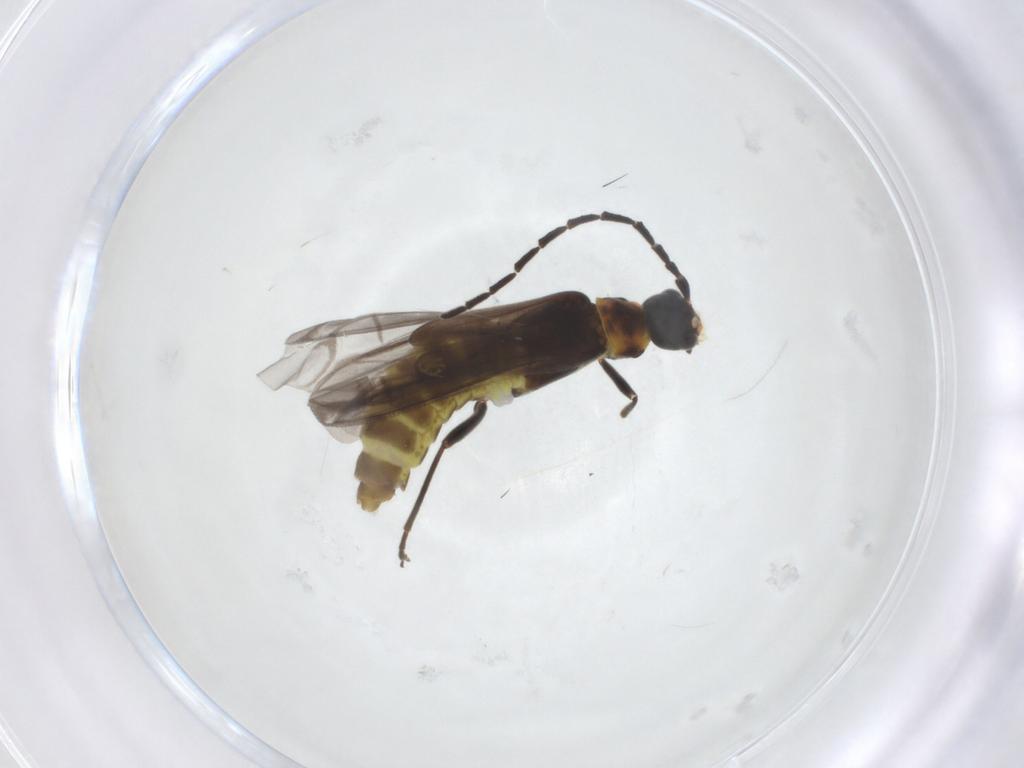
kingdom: Animalia
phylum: Arthropoda
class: Insecta
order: Coleoptera
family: Cantharidae
